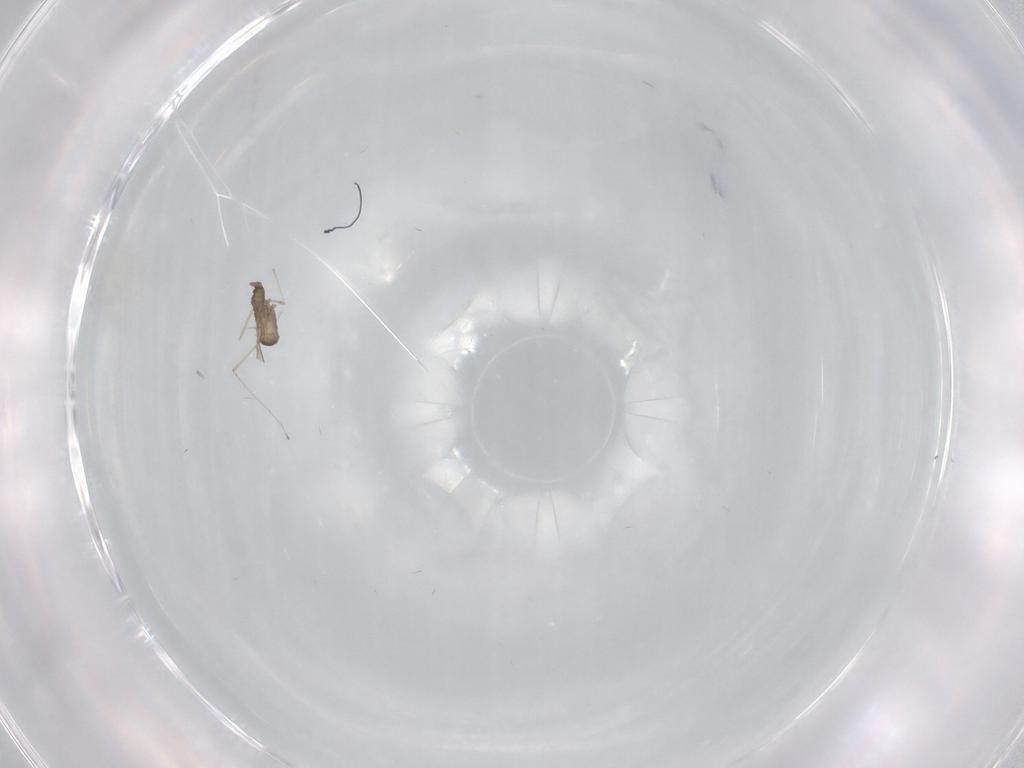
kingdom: Animalia
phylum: Arthropoda
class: Insecta
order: Diptera
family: Cecidomyiidae
